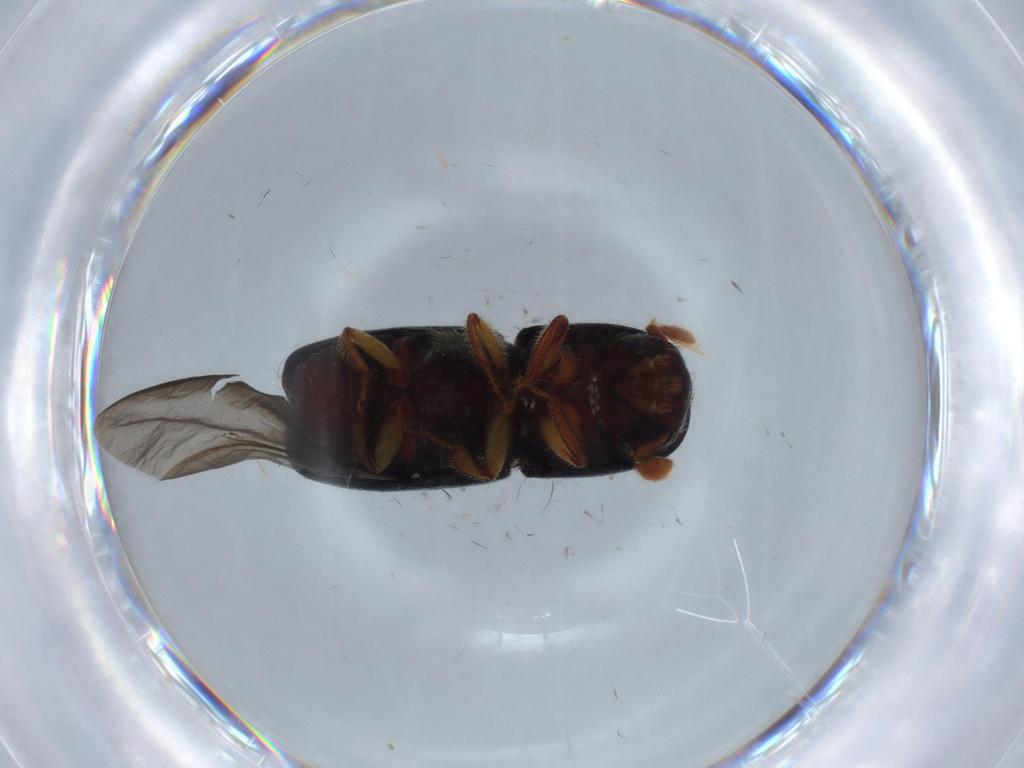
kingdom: Animalia
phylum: Arthropoda
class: Insecta
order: Coleoptera
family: Curculionidae
